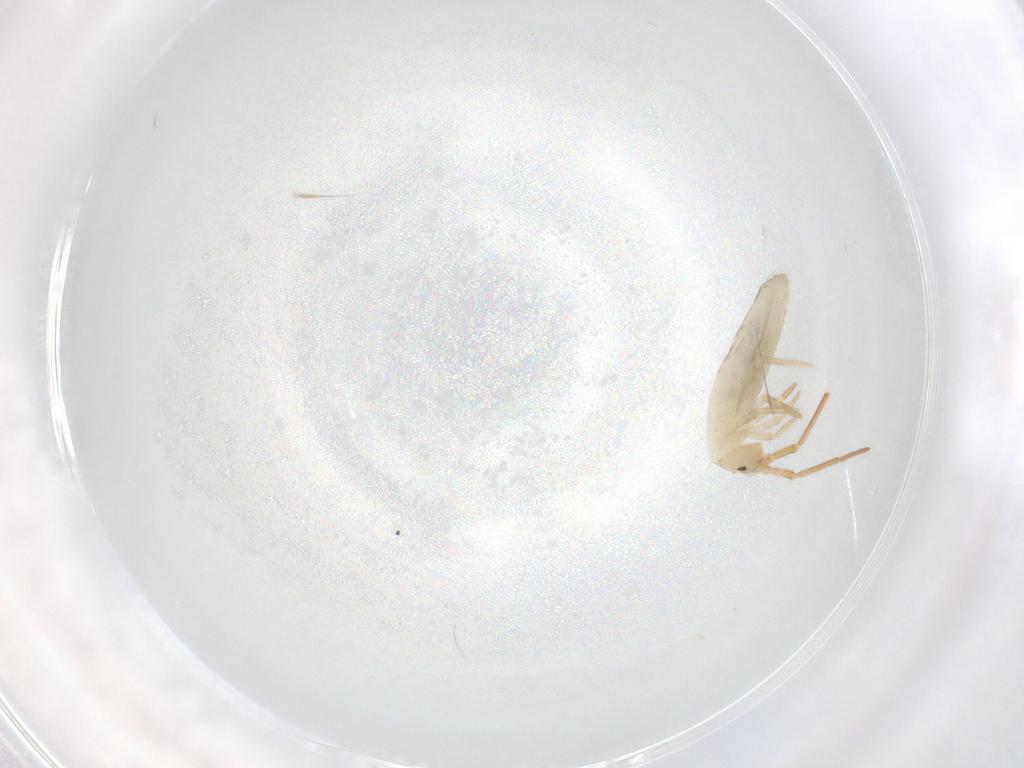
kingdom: Animalia
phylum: Arthropoda
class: Collembola
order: Entomobryomorpha
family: Entomobryidae
